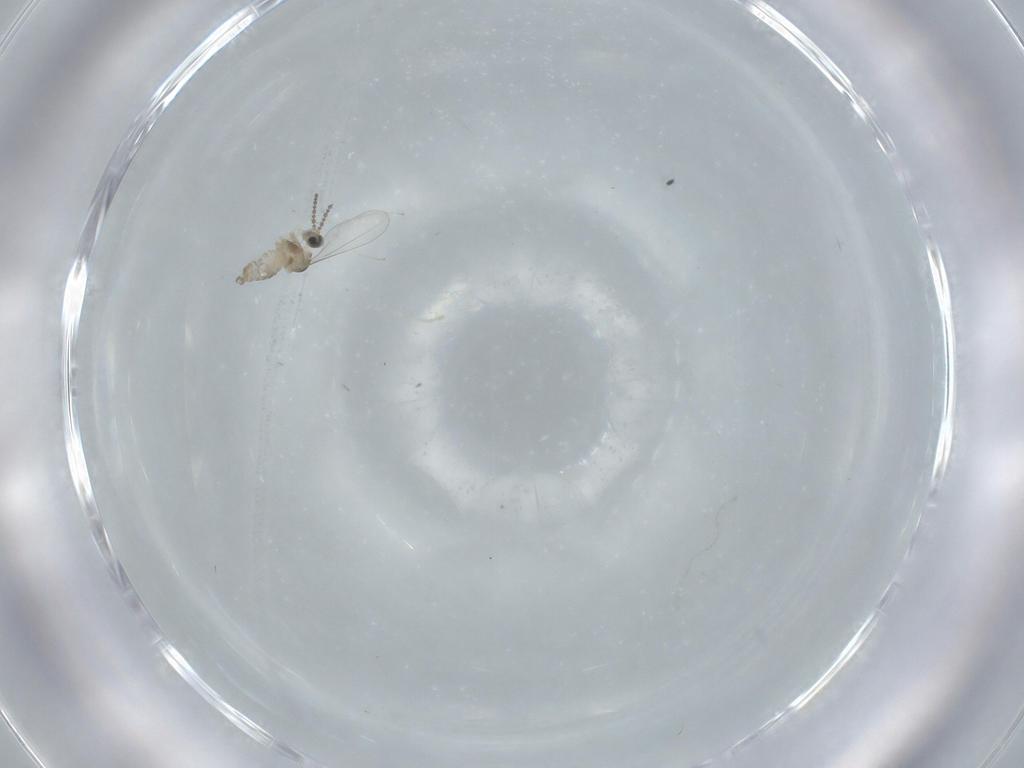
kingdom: Animalia
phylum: Arthropoda
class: Insecta
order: Diptera
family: Cecidomyiidae
